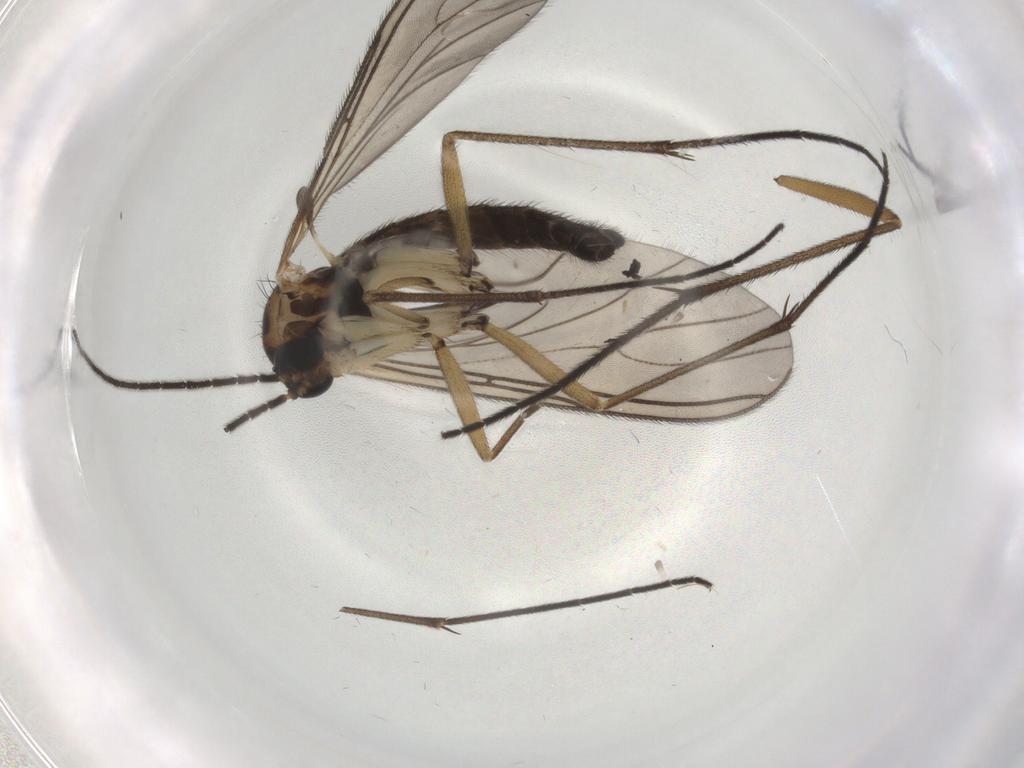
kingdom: Animalia
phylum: Arthropoda
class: Insecta
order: Diptera
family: Sciaridae
